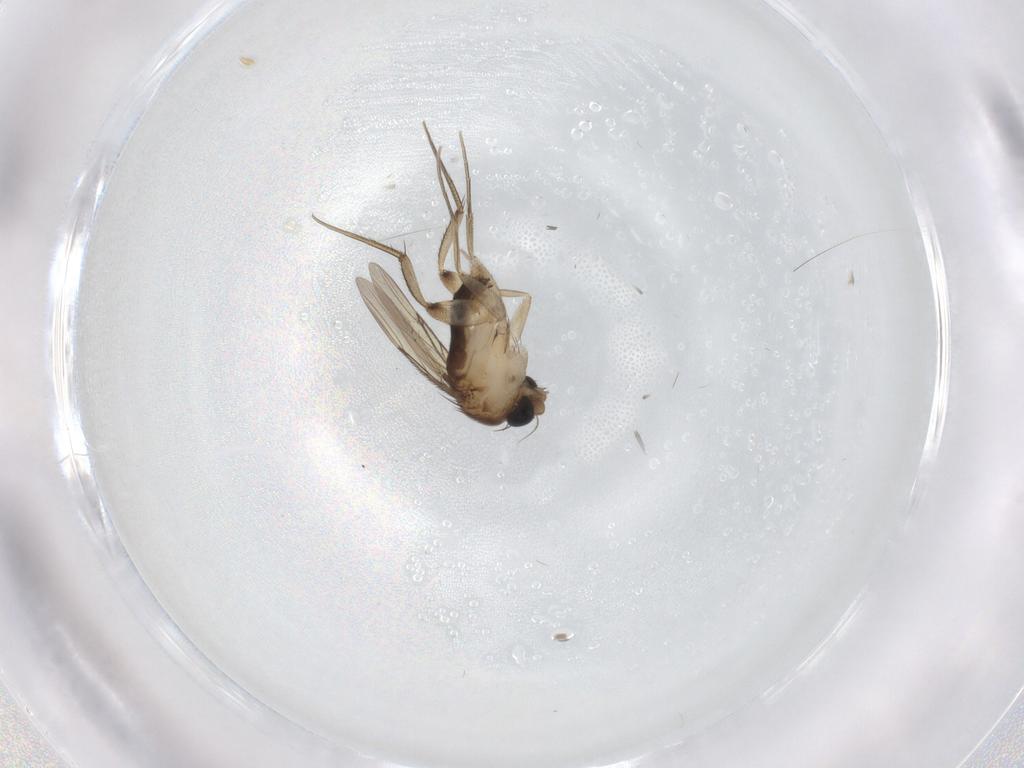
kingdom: Animalia
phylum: Arthropoda
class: Insecta
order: Diptera
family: Phoridae
